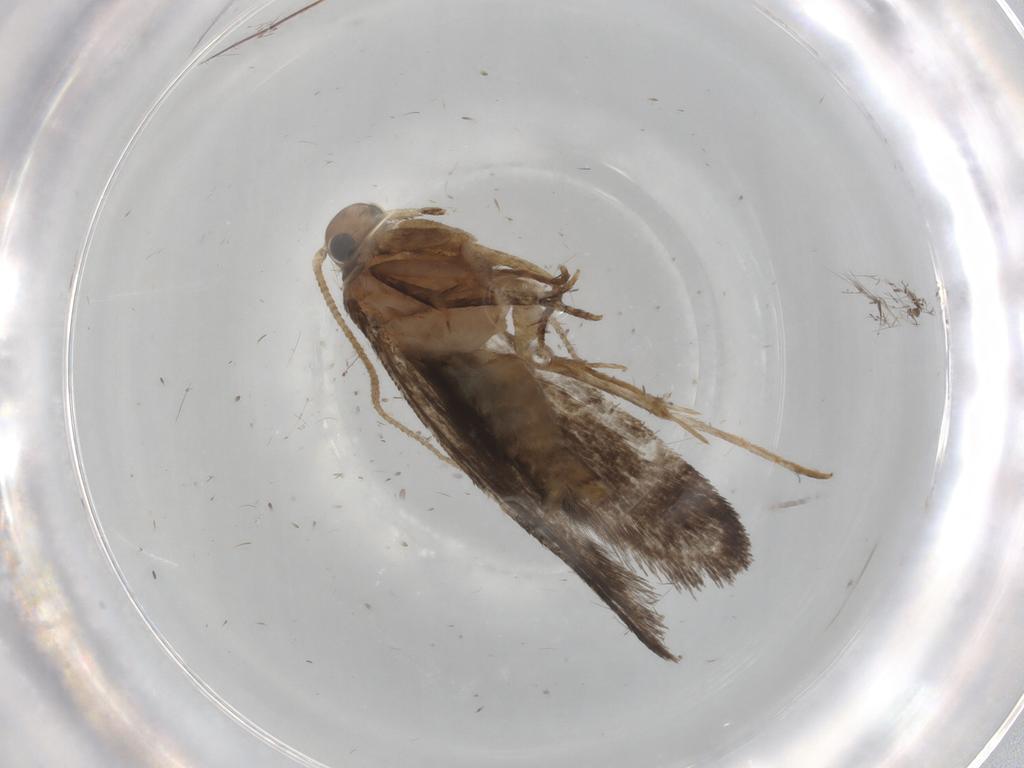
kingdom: Animalia
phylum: Arthropoda
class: Insecta
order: Lepidoptera
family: Tineidae
